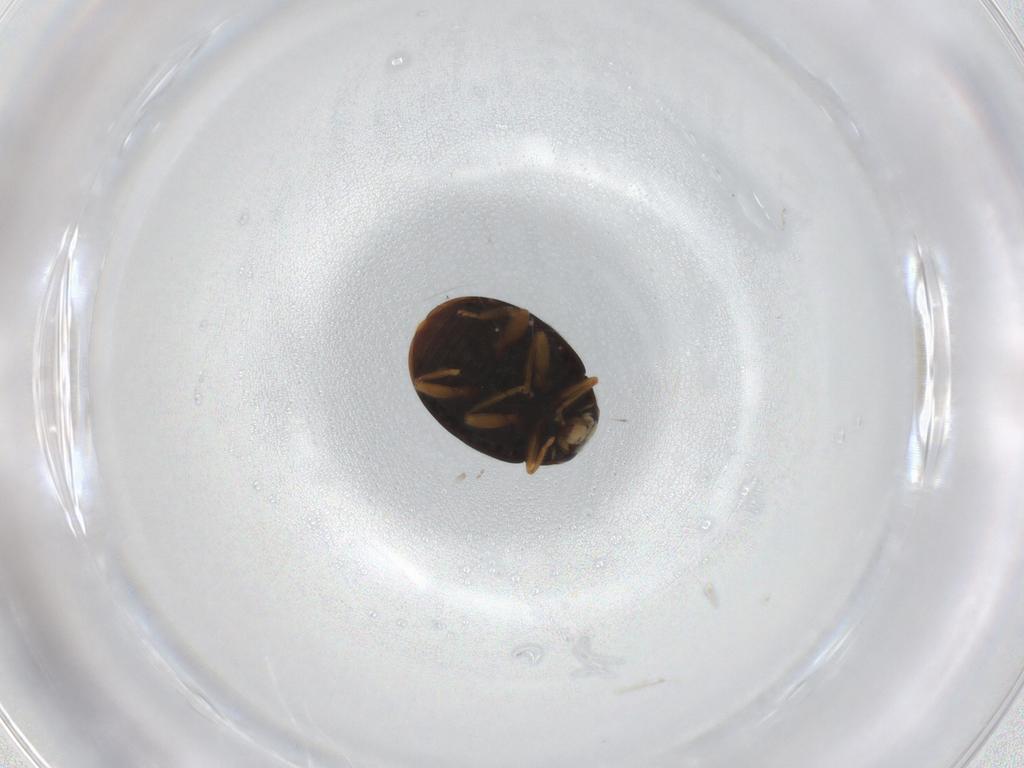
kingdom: Animalia
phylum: Arthropoda
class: Insecta
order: Coleoptera
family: Coccinellidae
